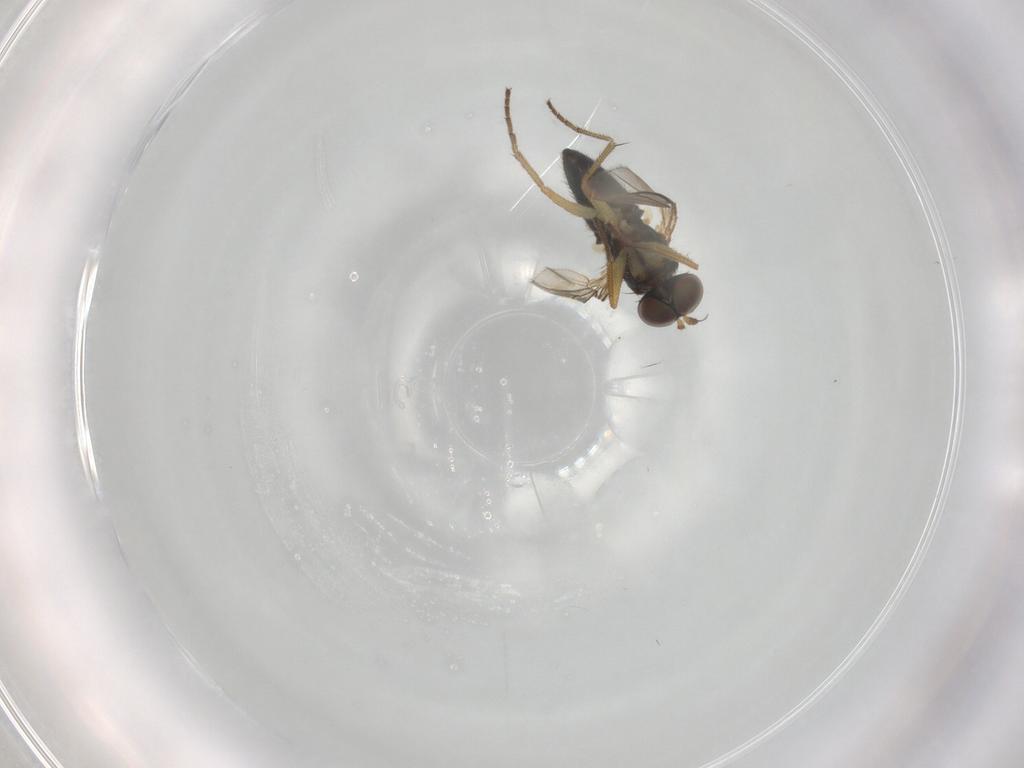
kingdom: Animalia
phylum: Arthropoda
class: Insecta
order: Diptera
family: Dolichopodidae
